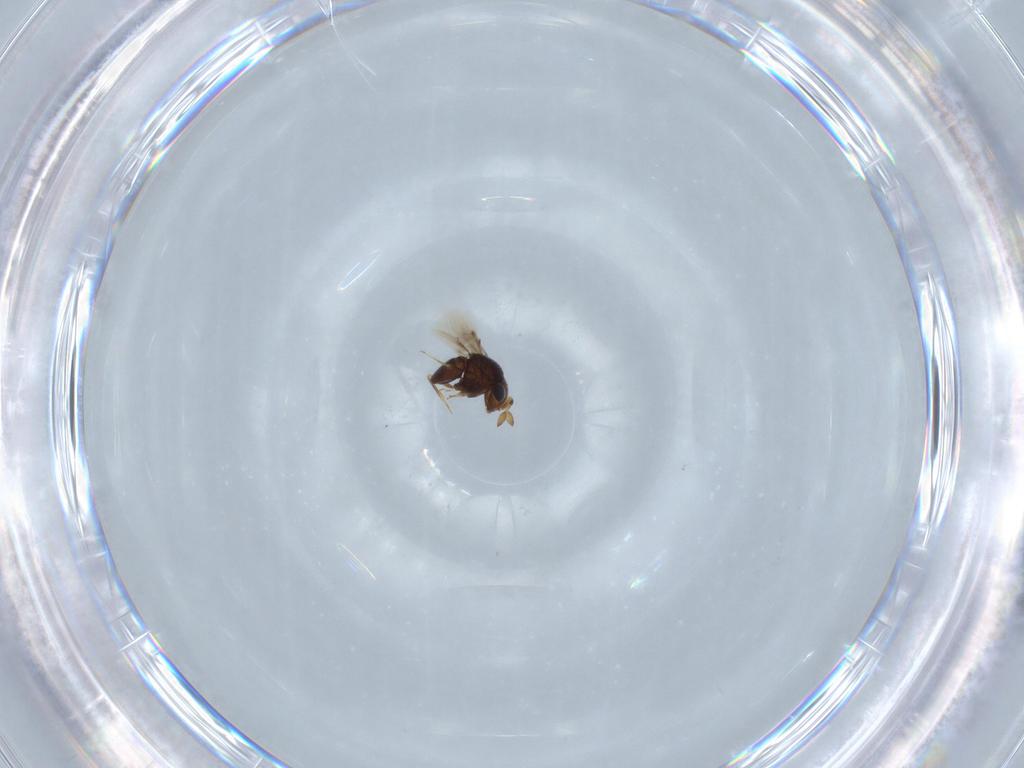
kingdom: Animalia
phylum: Arthropoda
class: Insecta
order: Hymenoptera
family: Scelionidae
